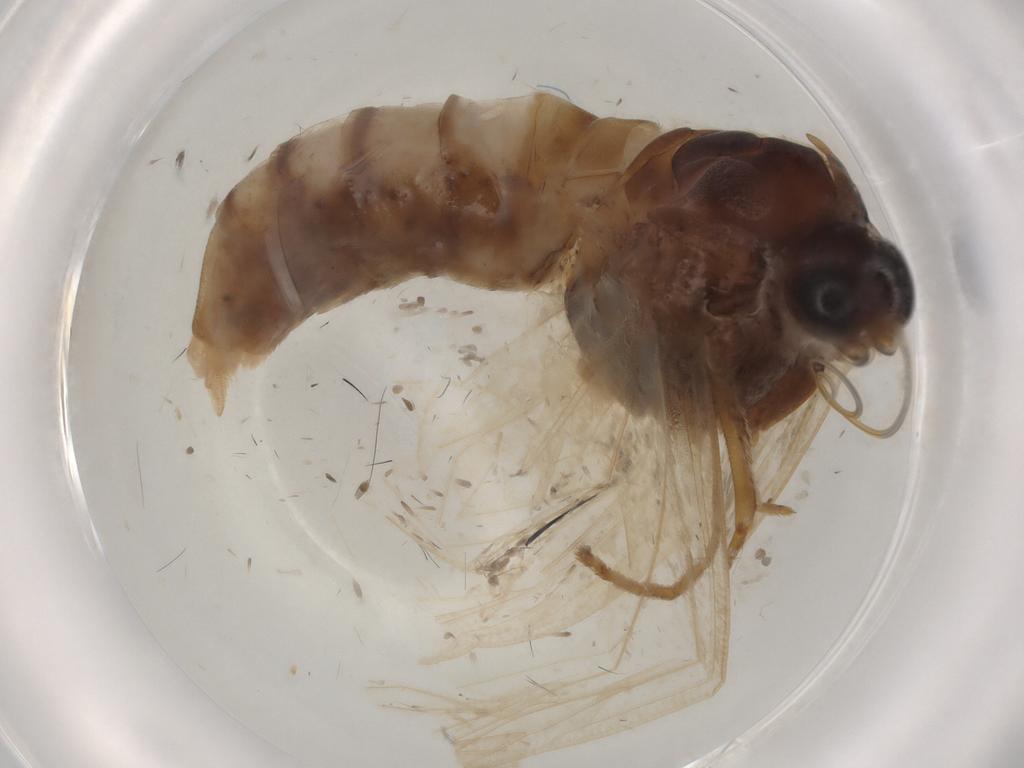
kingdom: Animalia
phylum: Arthropoda
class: Insecta
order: Lepidoptera
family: Crambidae
